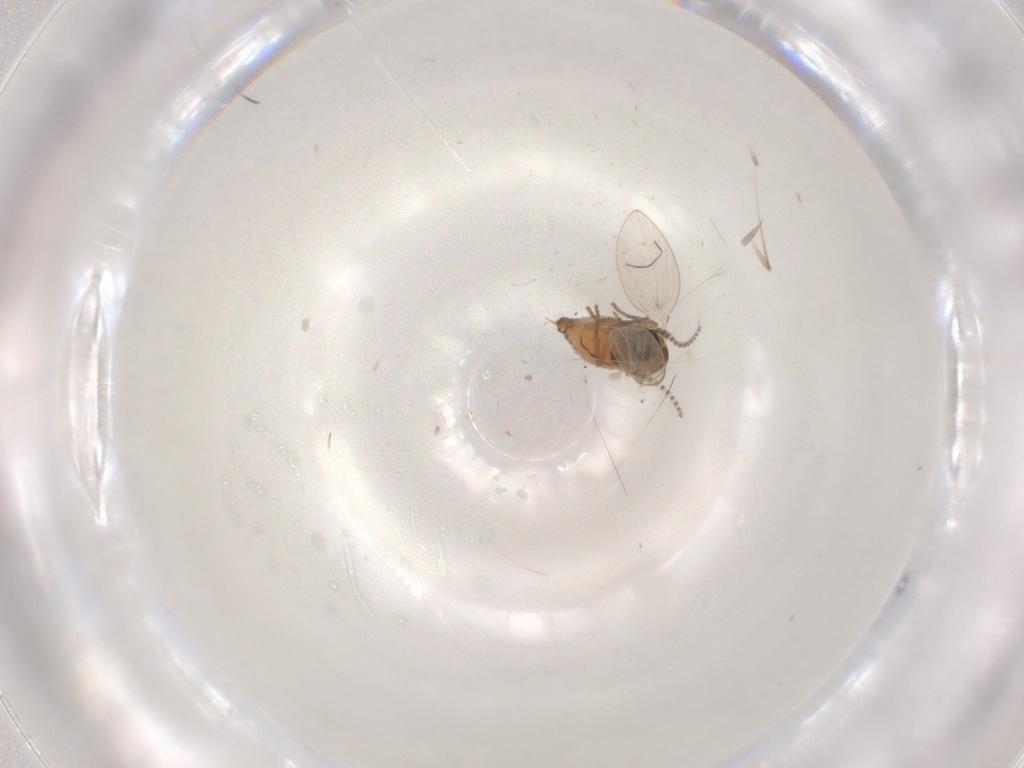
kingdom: Animalia
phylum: Arthropoda
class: Insecta
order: Diptera
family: Psychodidae
